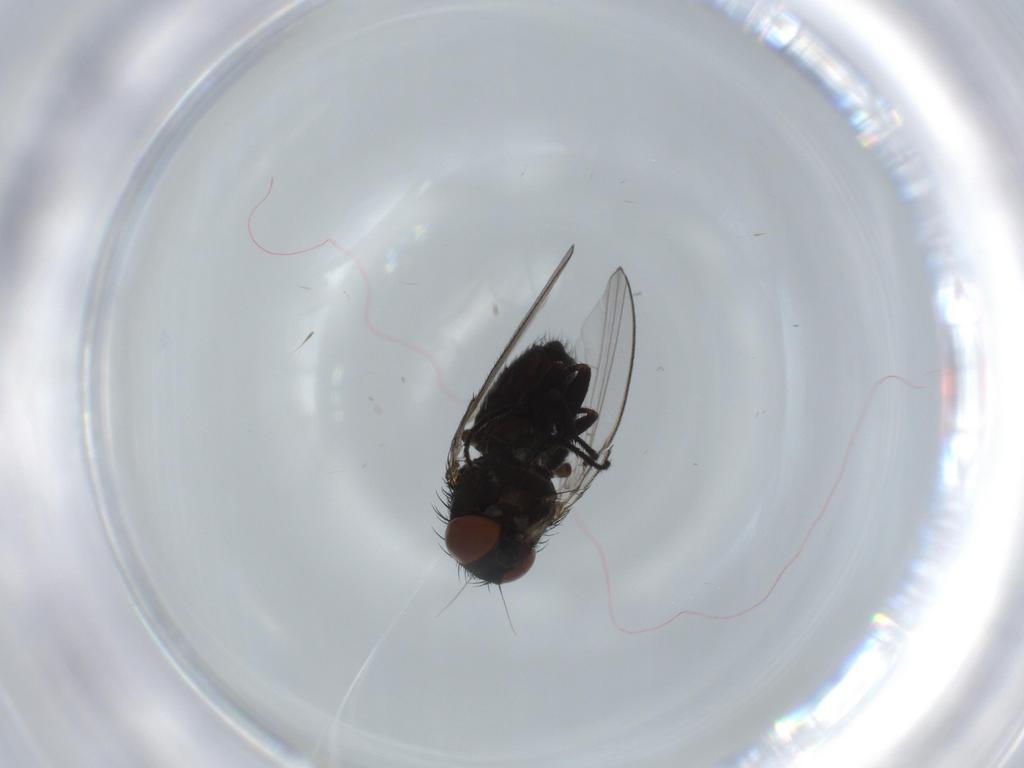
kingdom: Animalia
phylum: Arthropoda
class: Insecta
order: Diptera
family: Milichiidae
